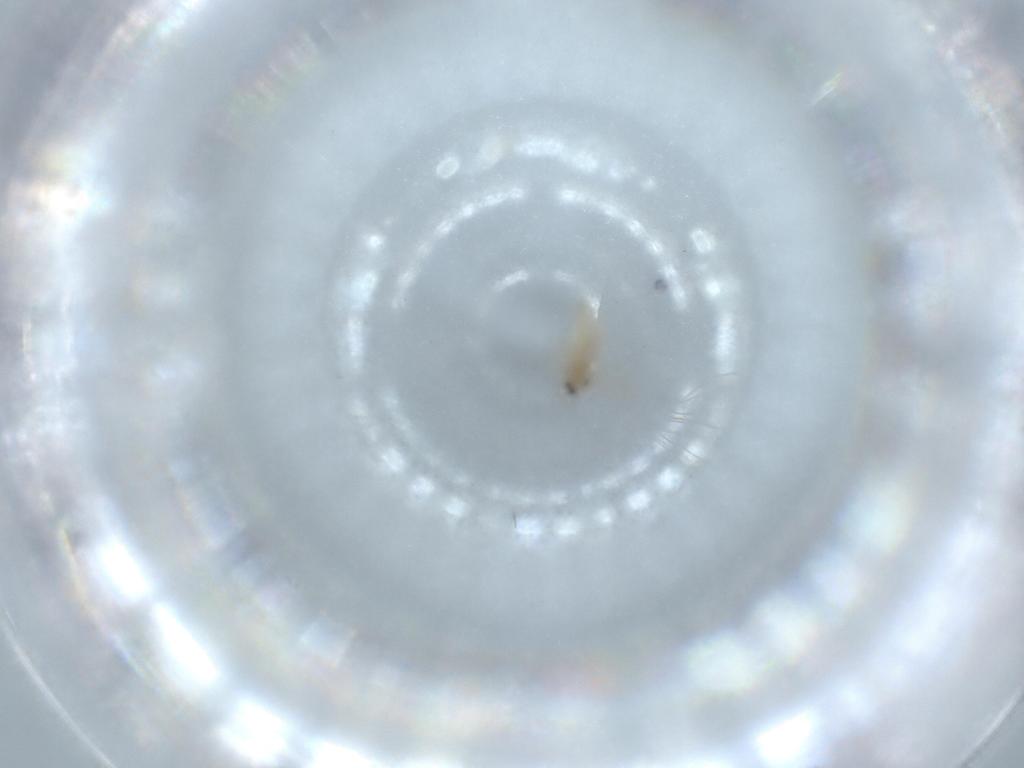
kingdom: Animalia
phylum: Arthropoda
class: Insecta
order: Diptera
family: Cecidomyiidae
